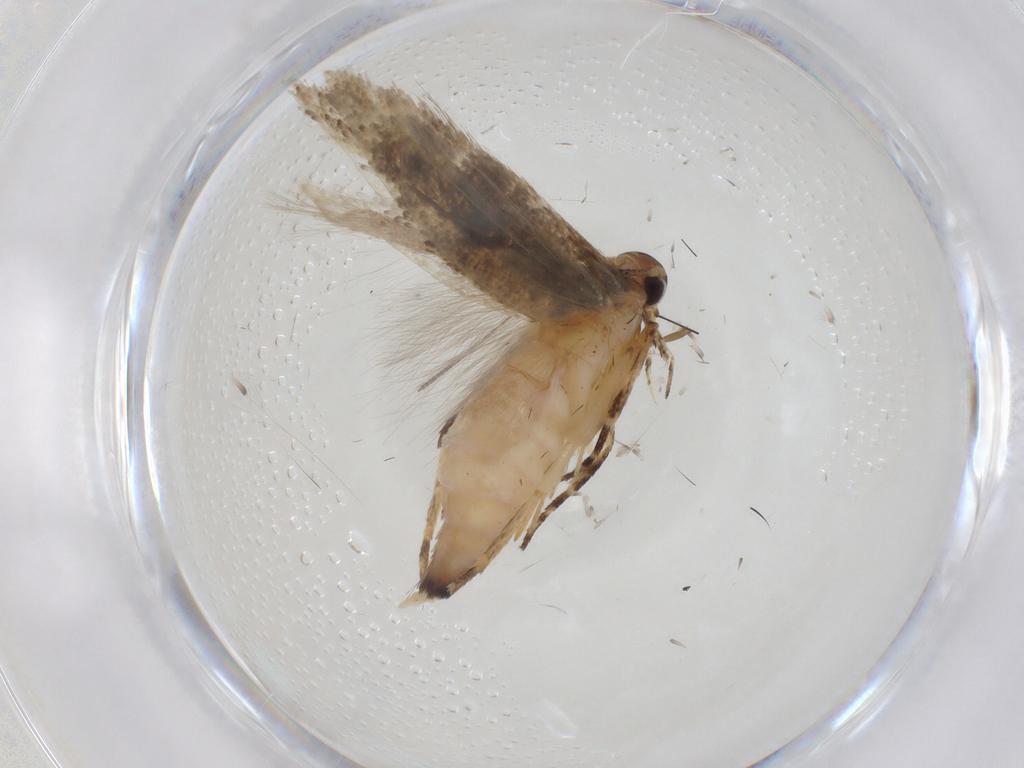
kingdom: Animalia
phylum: Arthropoda
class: Insecta
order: Lepidoptera
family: Gelechiidae
